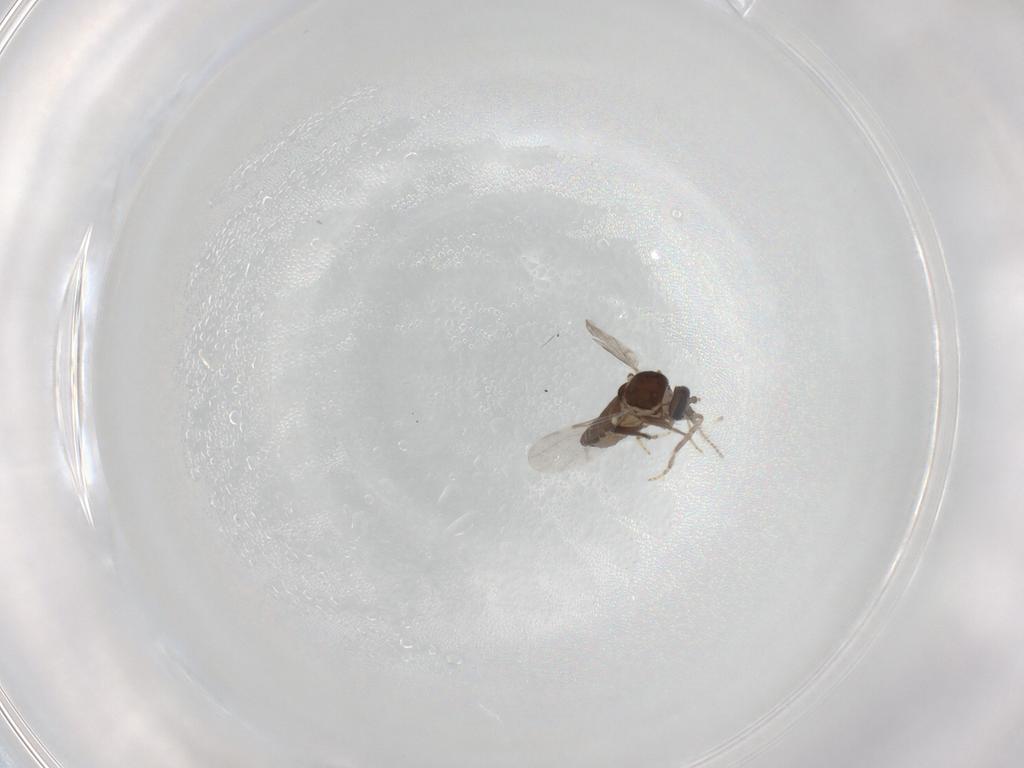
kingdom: Animalia
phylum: Arthropoda
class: Insecta
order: Diptera
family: Ceratopogonidae
